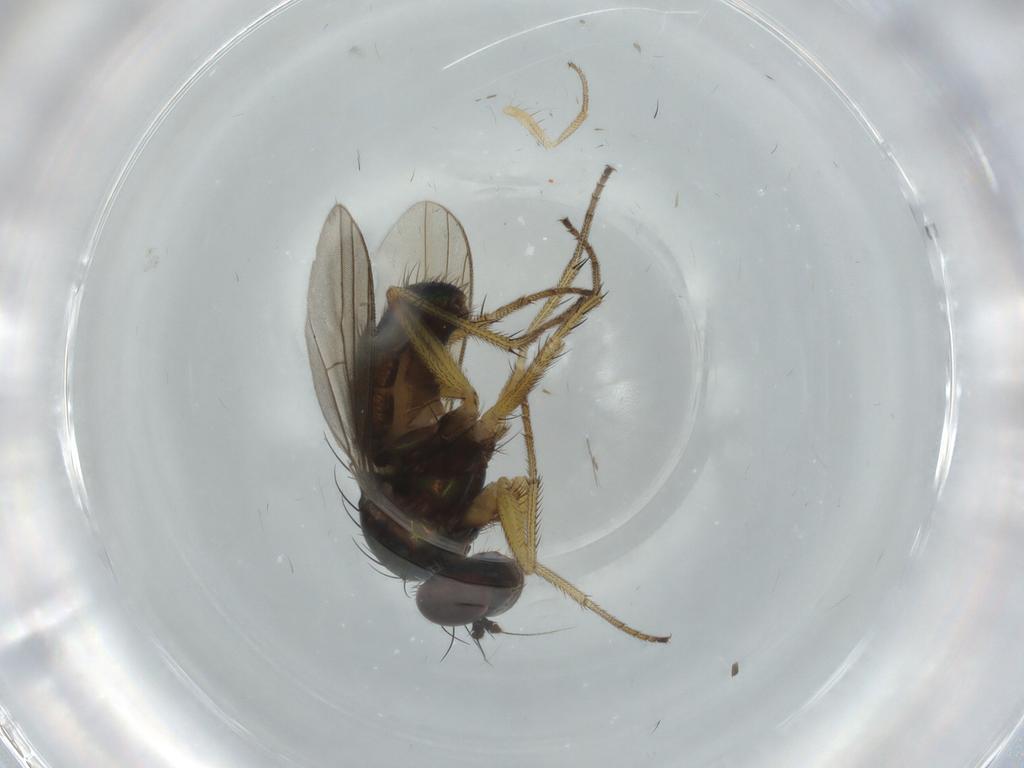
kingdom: Animalia
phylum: Arthropoda
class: Insecta
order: Diptera
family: Dolichopodidae
